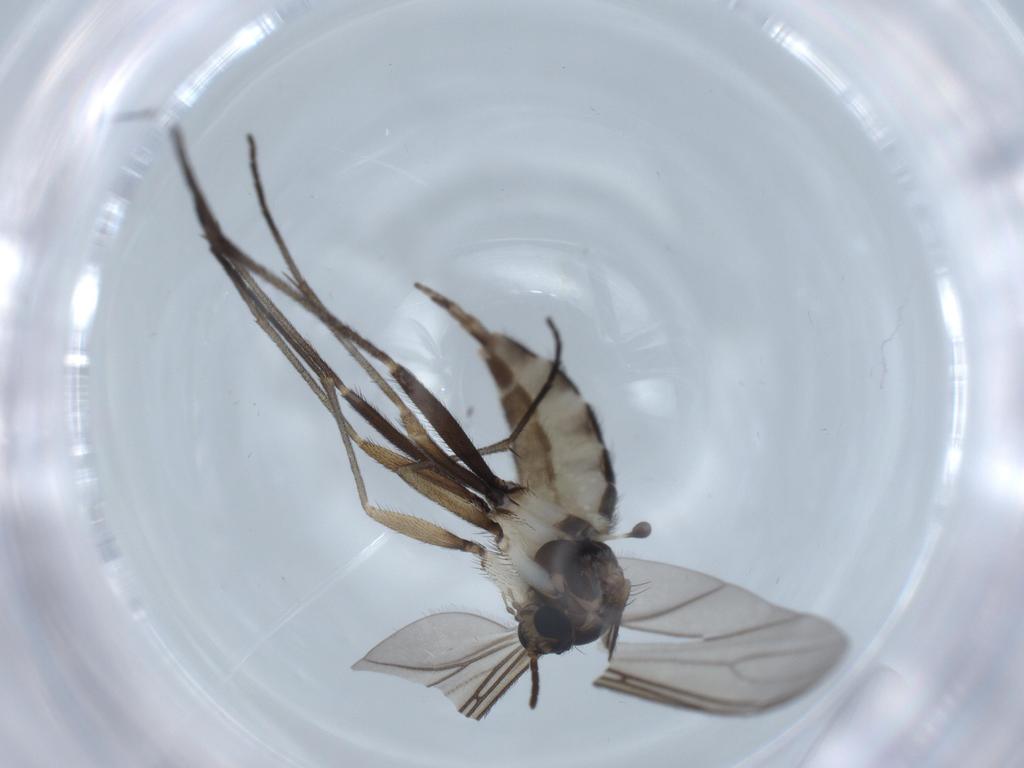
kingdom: Animalia
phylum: Arthropoda
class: Insecta
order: Diptera
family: Sciaridae
